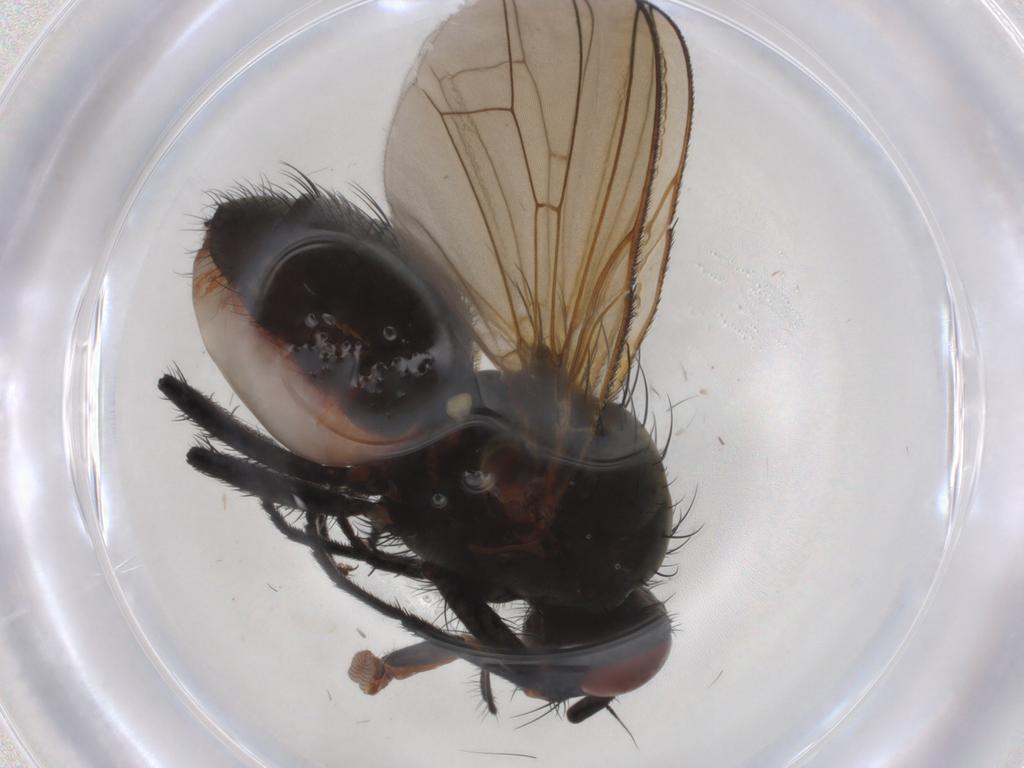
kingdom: Animalia
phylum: Arthropoda
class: Insecta
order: Diptera
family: Anthomyiidae
